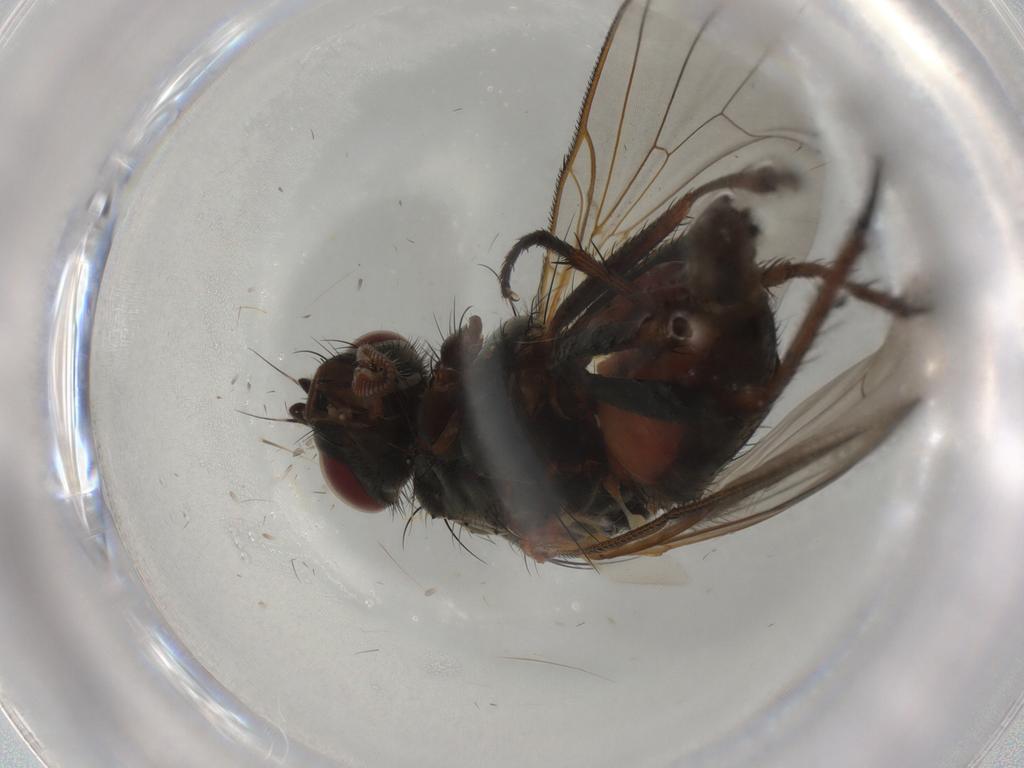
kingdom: Animalia
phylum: Arthropoda
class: Insecta
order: Diptera
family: Anthomyiidae
